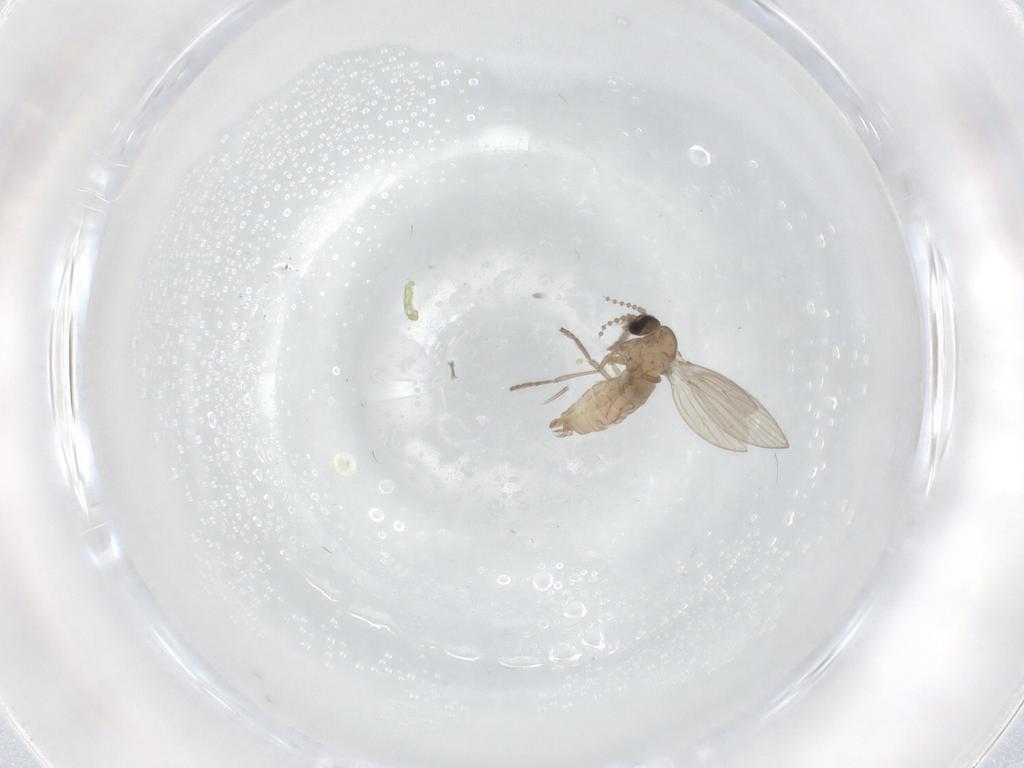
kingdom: Animalia
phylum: Arthropoda
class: Insecta
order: Diptera
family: Psychodidae
